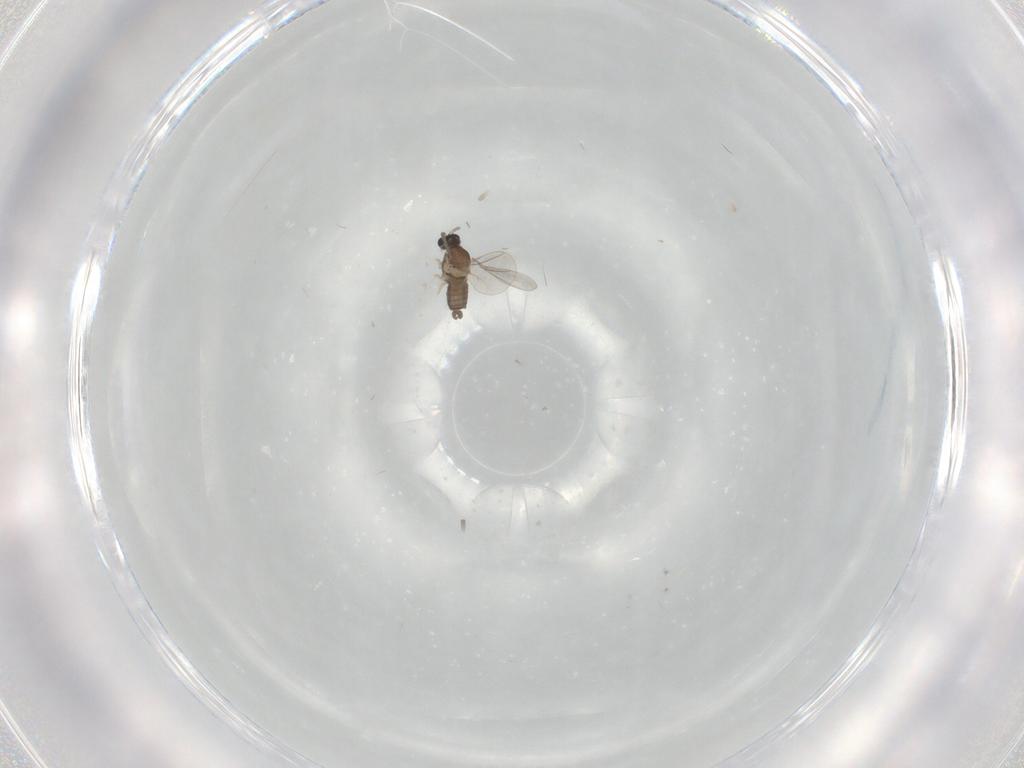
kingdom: Animalia
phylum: Arthropoda
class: Insecta
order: Diptera
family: Cecidomyiidae
